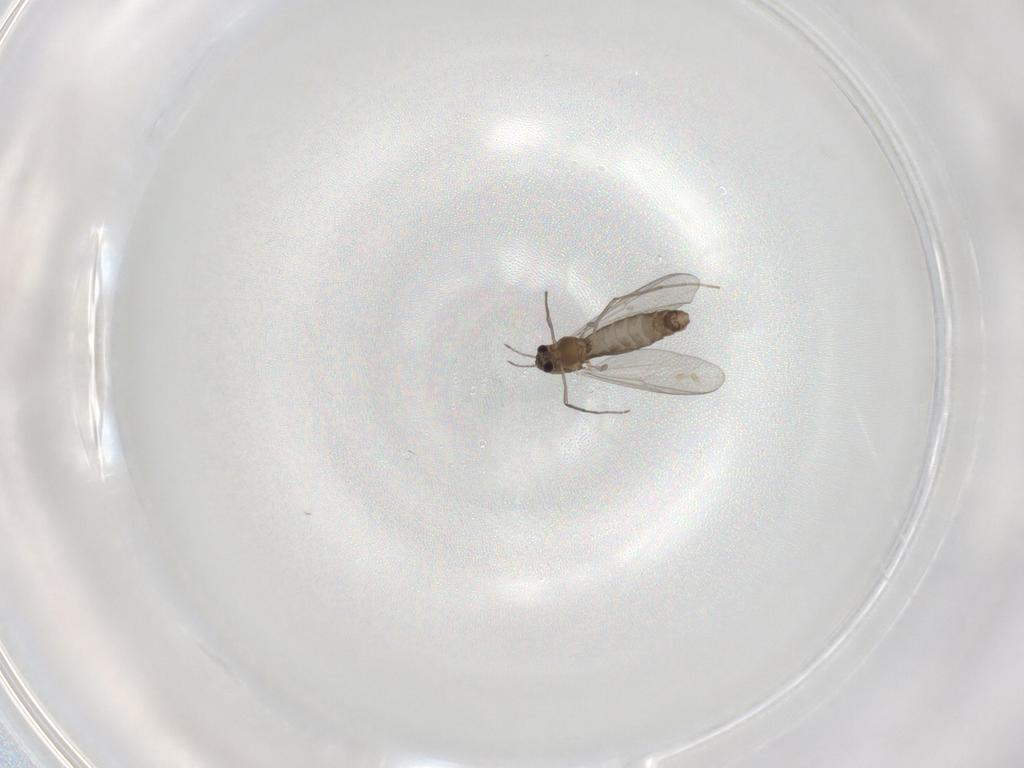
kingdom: Animalia
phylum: Arthropoda
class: Insecta
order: Diptera
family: Chironomidae
